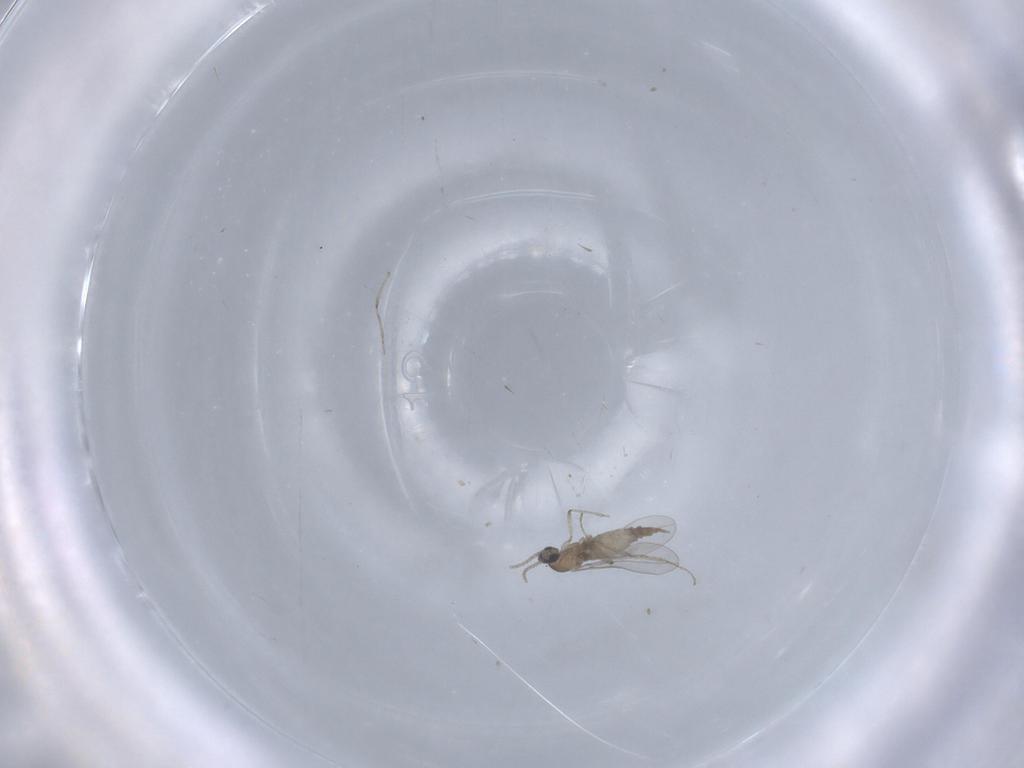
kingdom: Animalia
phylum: Arthropoda
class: Insecta
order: Diptera
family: Cecidomyiidae
